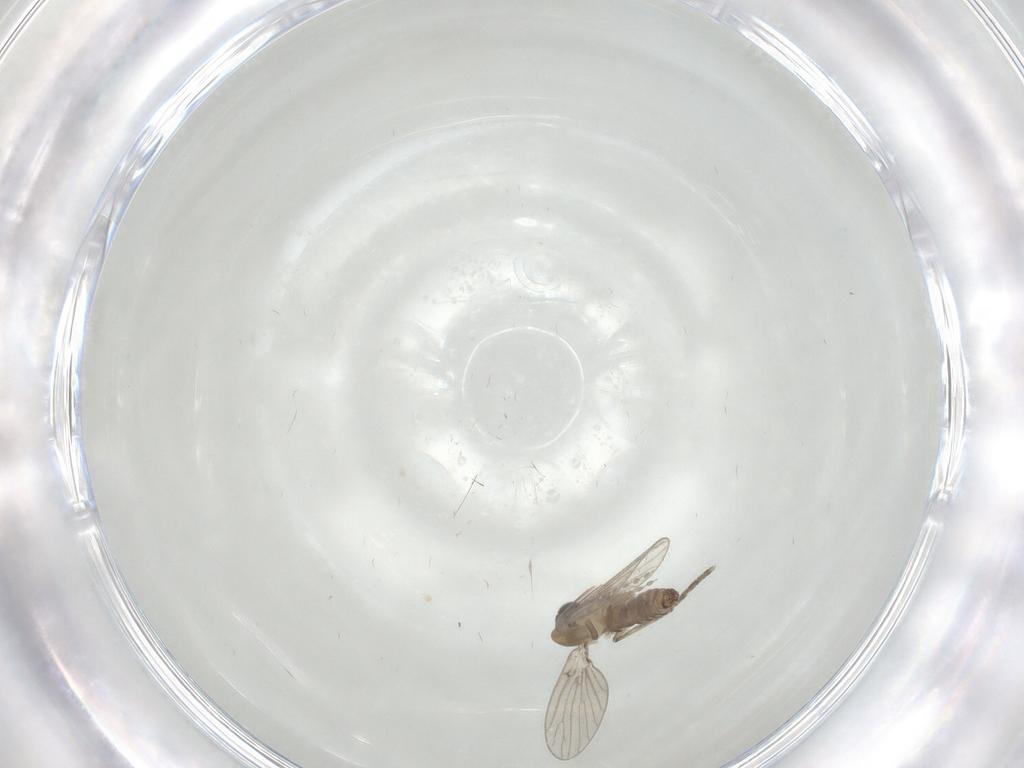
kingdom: Animalia
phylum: Arthropoda
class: Insecta
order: Diptera
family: Psychodidae
